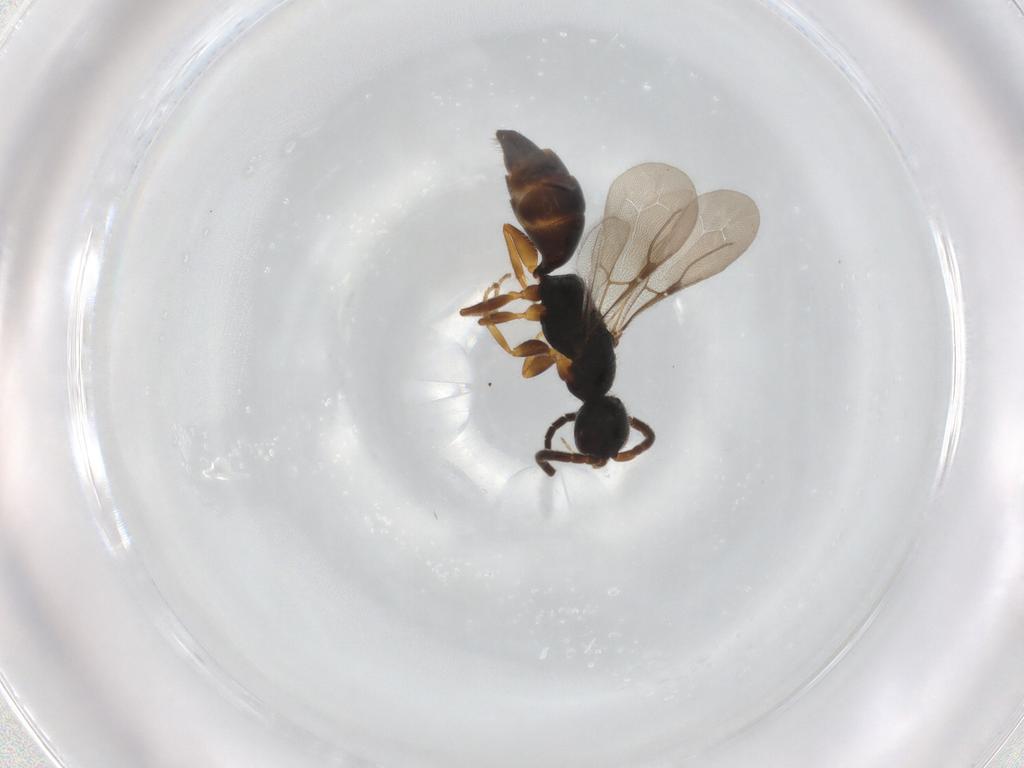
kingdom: Animalia
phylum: Arthropoda
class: Insecta
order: Hymenoptera
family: Bethylidae
